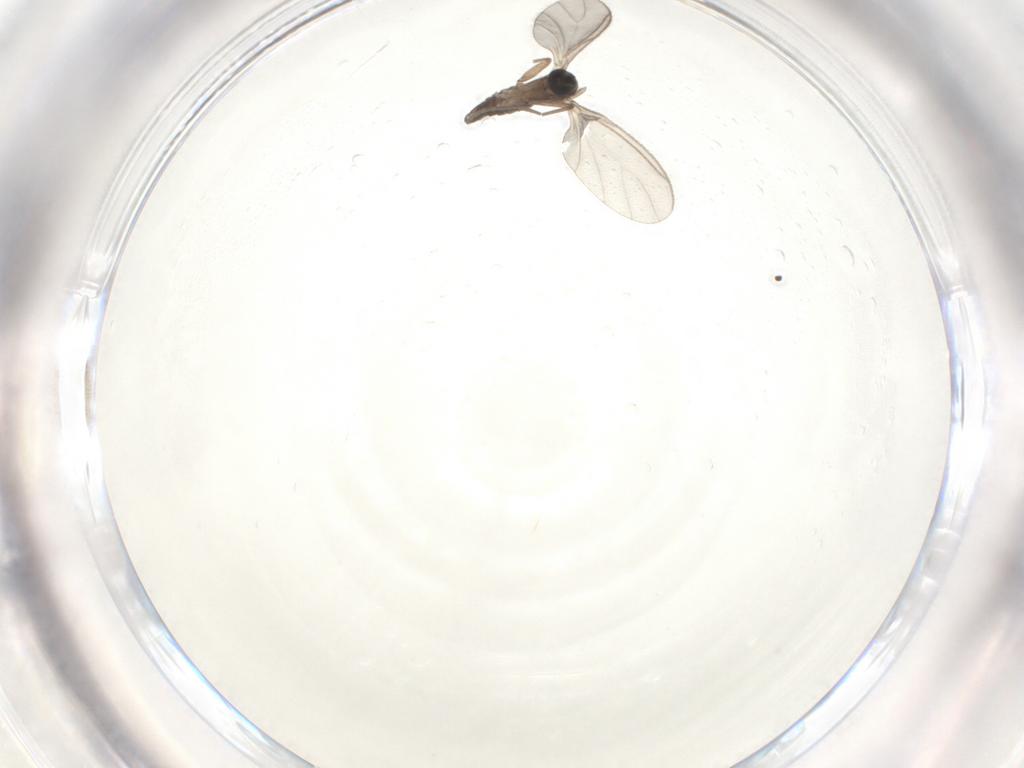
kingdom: Animalia
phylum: Arthropoda
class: Insecta
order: Diptera
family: Sciaridae
